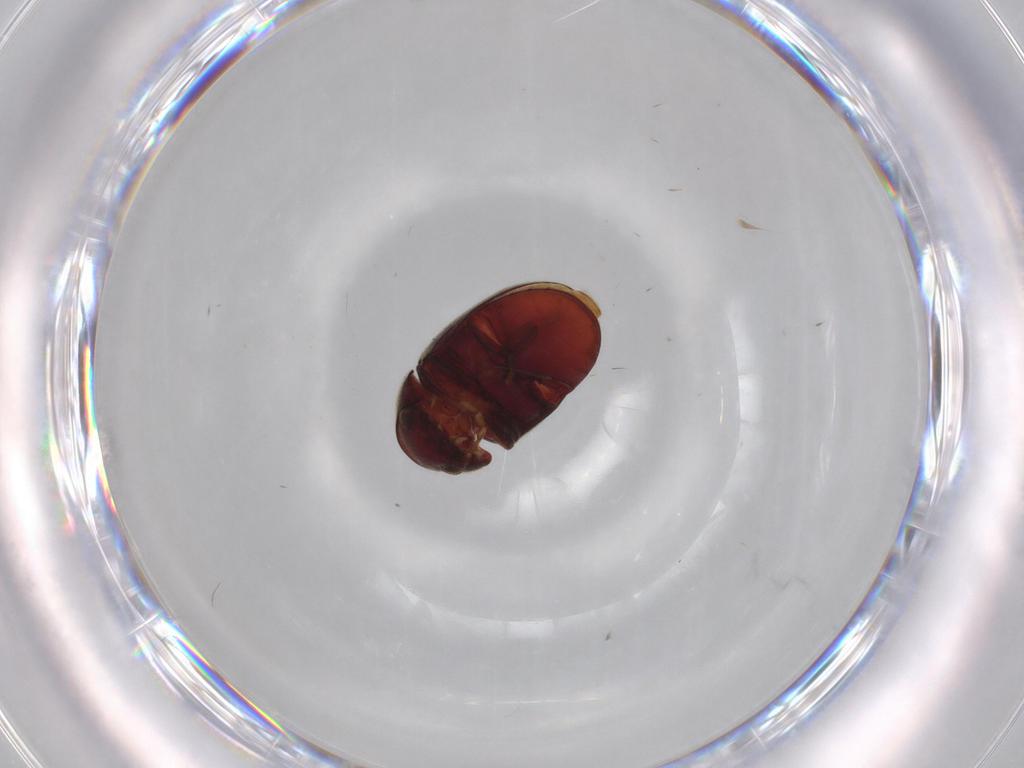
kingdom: Animalia
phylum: Arthropoda
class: Insecta
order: Coleoptera
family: Ptinidae
